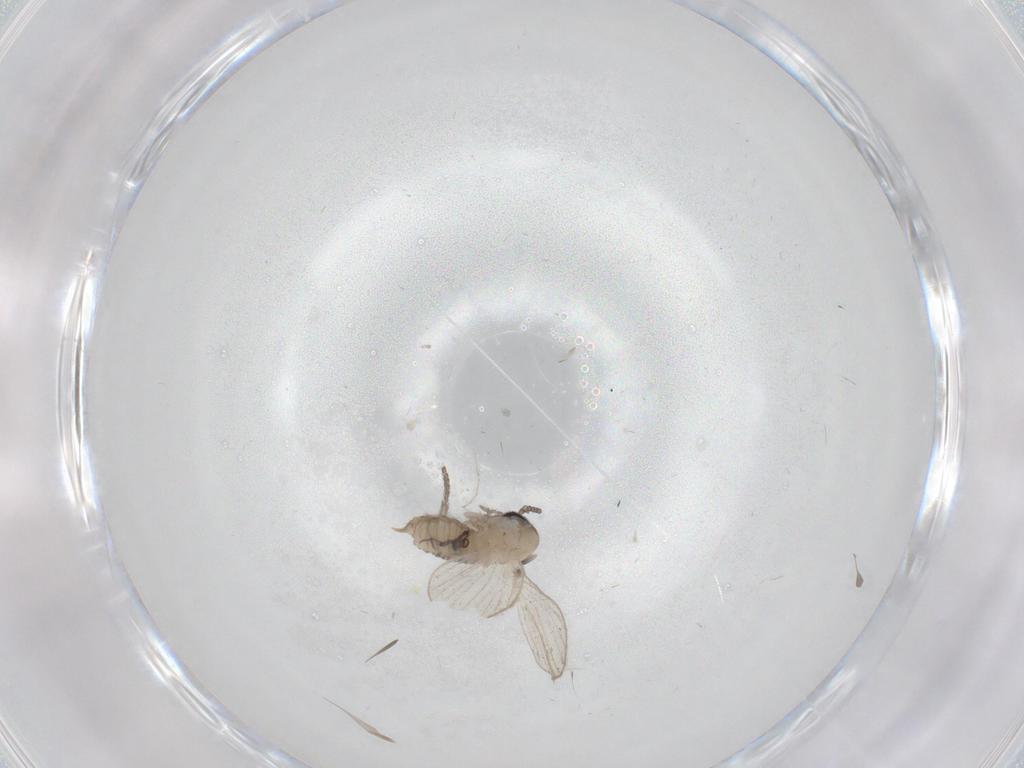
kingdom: Animalia
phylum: Arthropoda
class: Insecta
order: Diptera
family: Psychodidae
